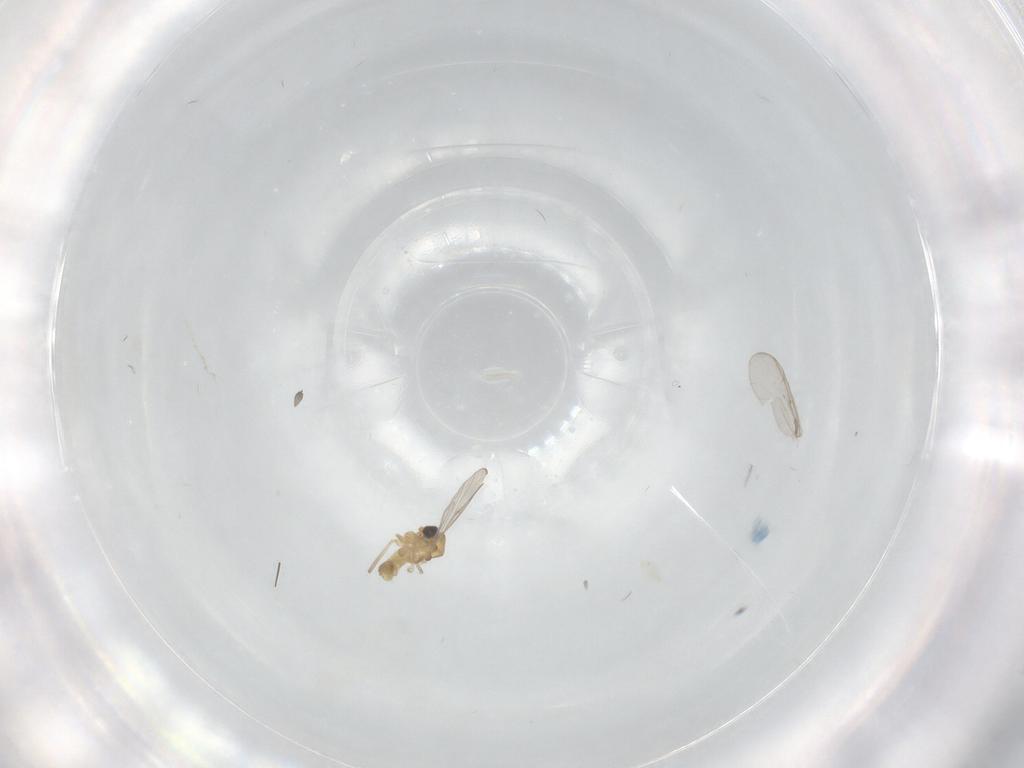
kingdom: Animalia
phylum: Arthropoda
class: Insecta
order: Diptera
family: Chironomidae
